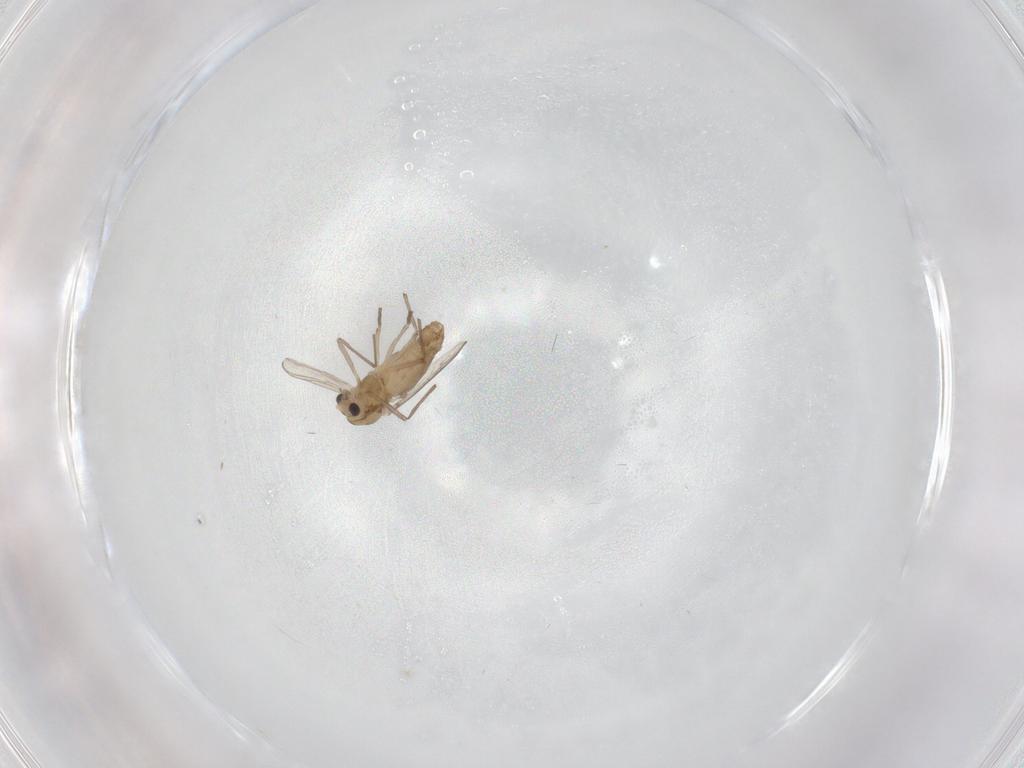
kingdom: Animalia
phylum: Arthropoda
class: Insecta
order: Diptera
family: Chironomidae
